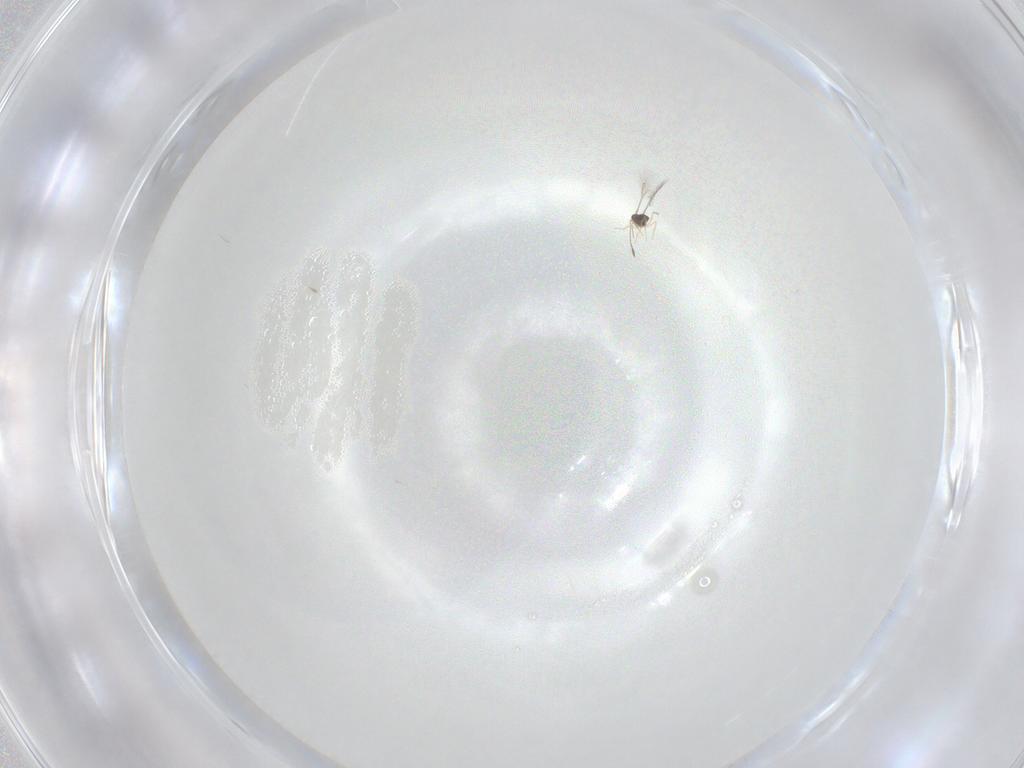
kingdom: Animalia
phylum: Arthropoda
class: Insecta
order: Hymenoptera
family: Mymaridae
